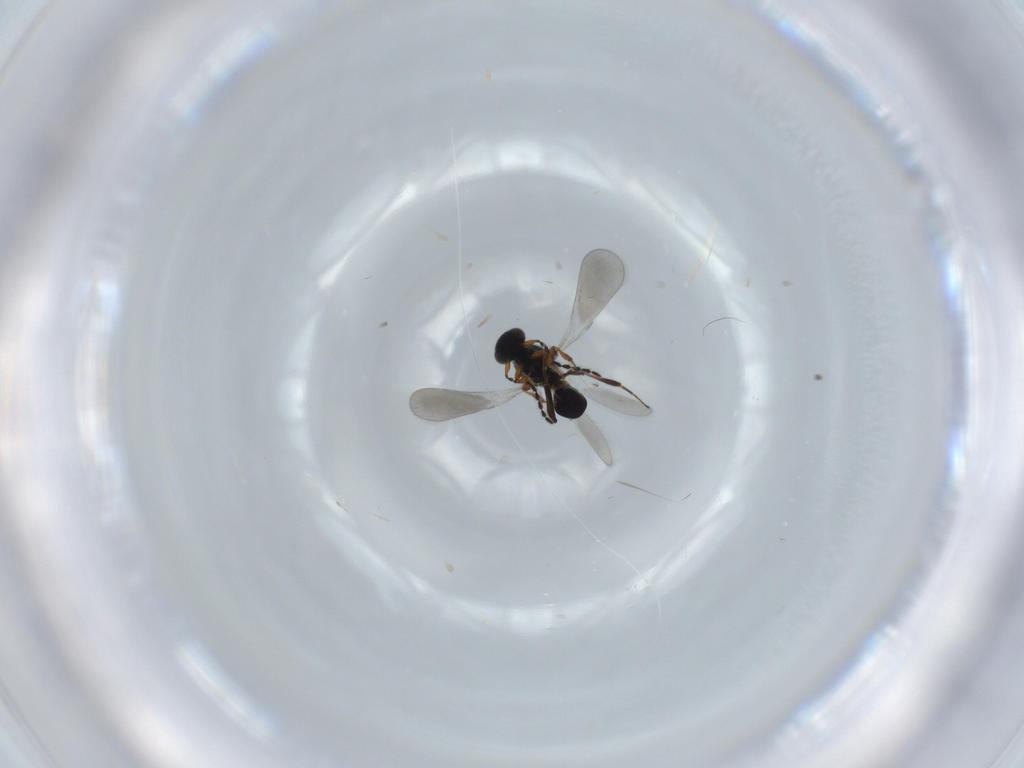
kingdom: Animalia
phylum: Arthropoda
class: Insecta
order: Hymenoptera
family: Platygastridae
